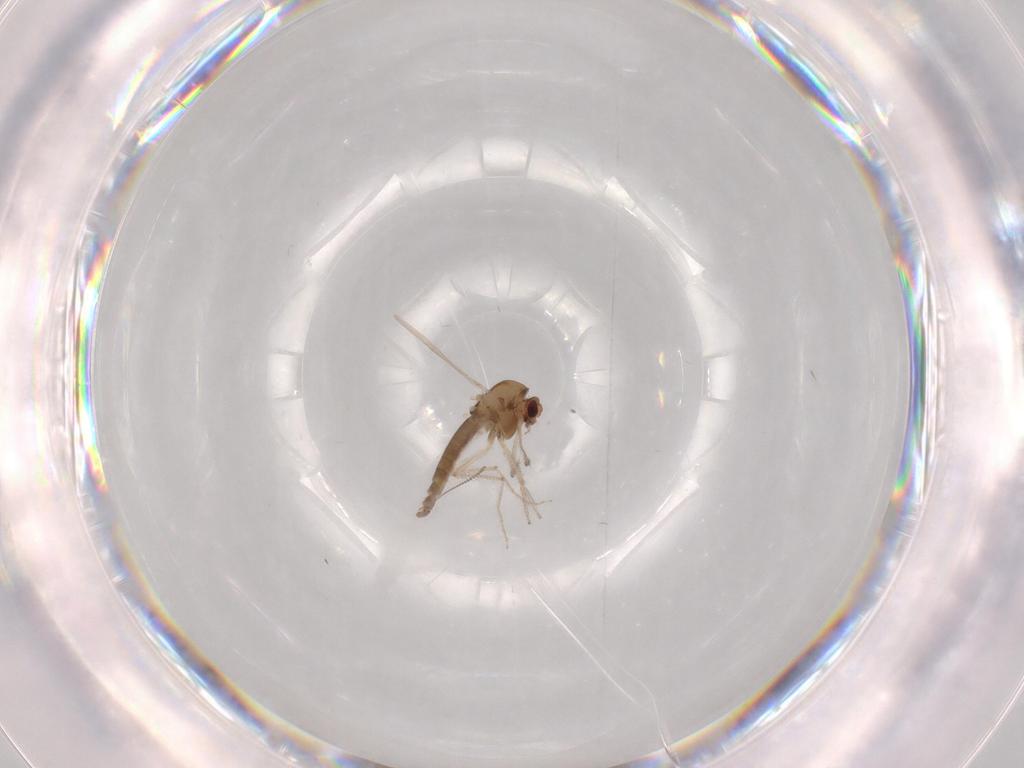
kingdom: Animalia
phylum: Arthropoda
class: Insecta
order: Diptera
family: Chironomidae
